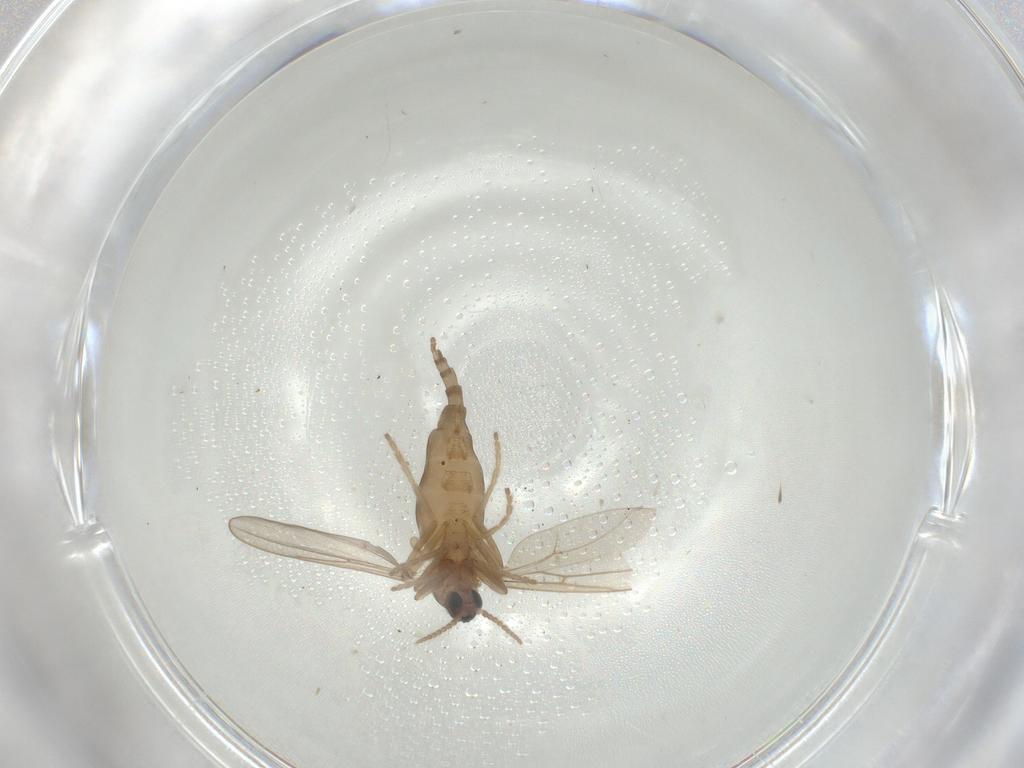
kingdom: Animalia
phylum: Arthropoda
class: Insecta
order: Diptera
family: Cecidomyiidae
